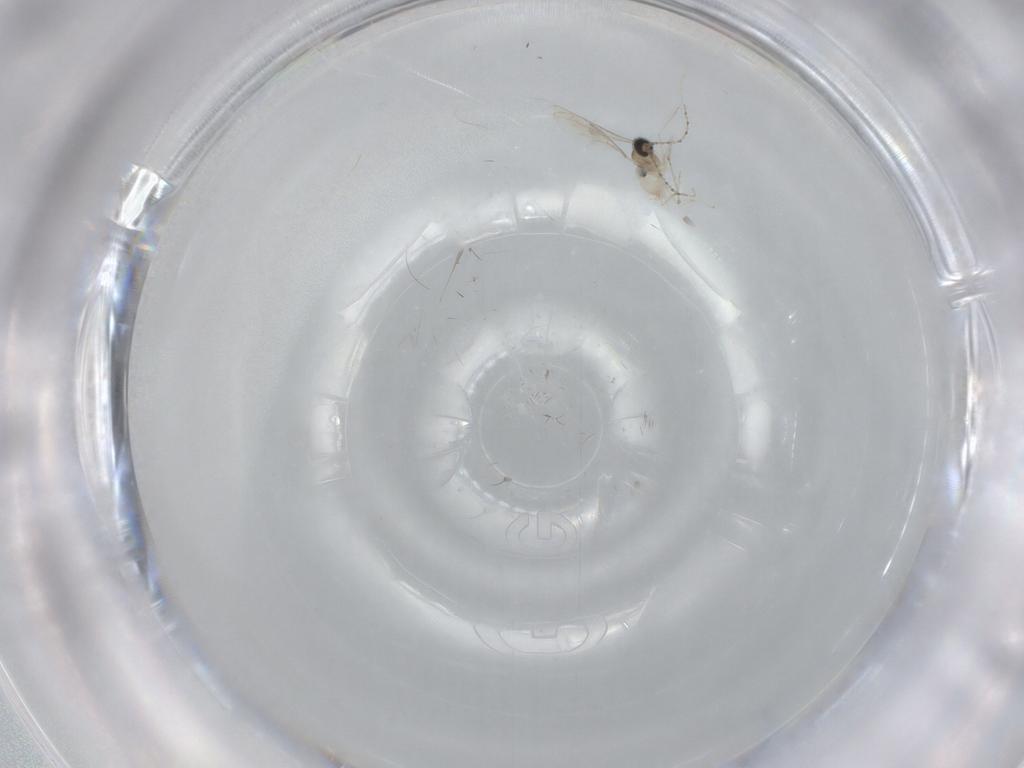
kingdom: Animalia
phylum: Arthropoda
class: Insecta
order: Diptera
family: Cecidomyiidae
